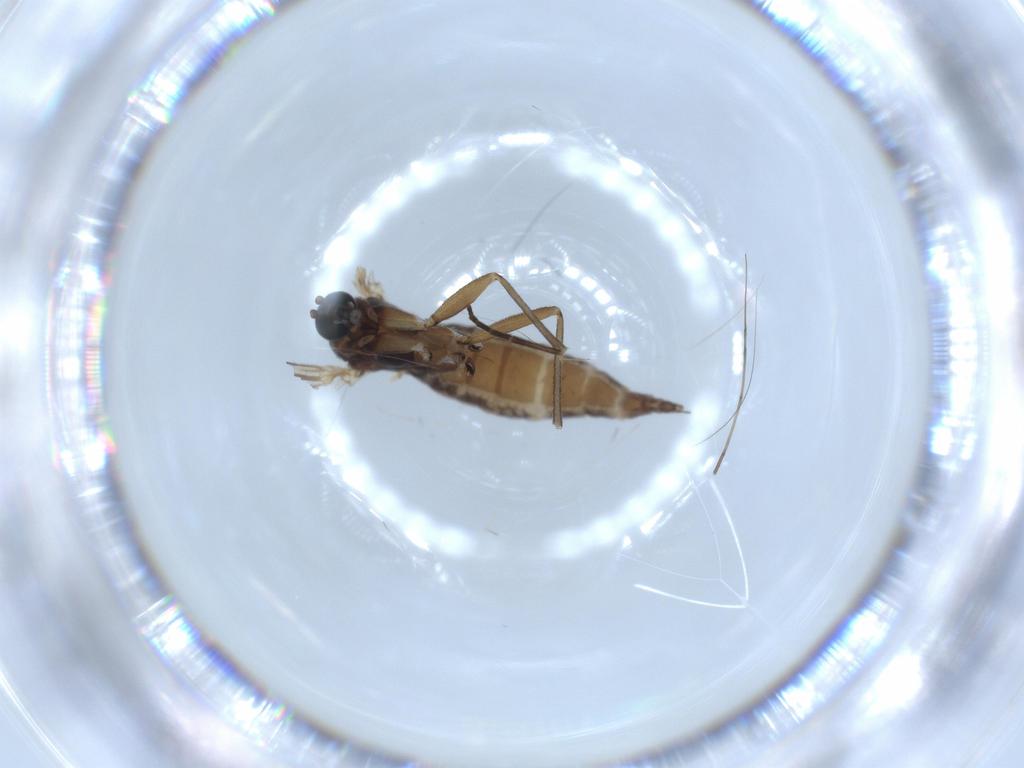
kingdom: Animalia
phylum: Arthropoda
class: Insecta
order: Diptera
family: Sciaridae
